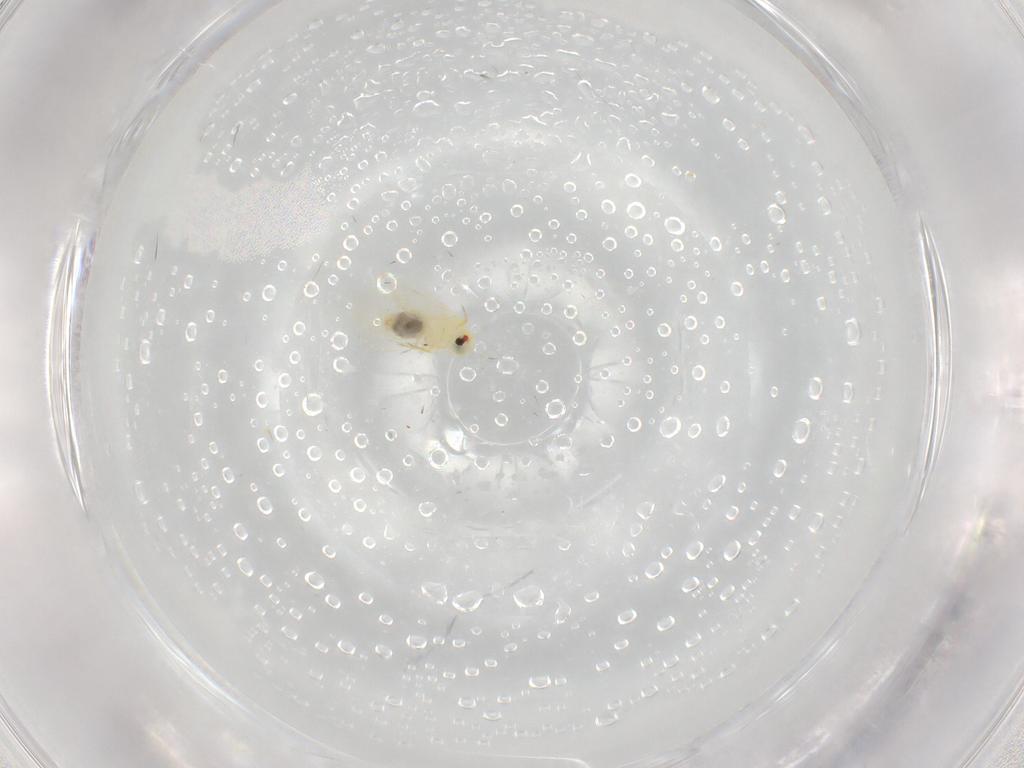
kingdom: Animalia
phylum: Arthropoda
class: Insecta
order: Hemiptera
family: Aleyrodidae
